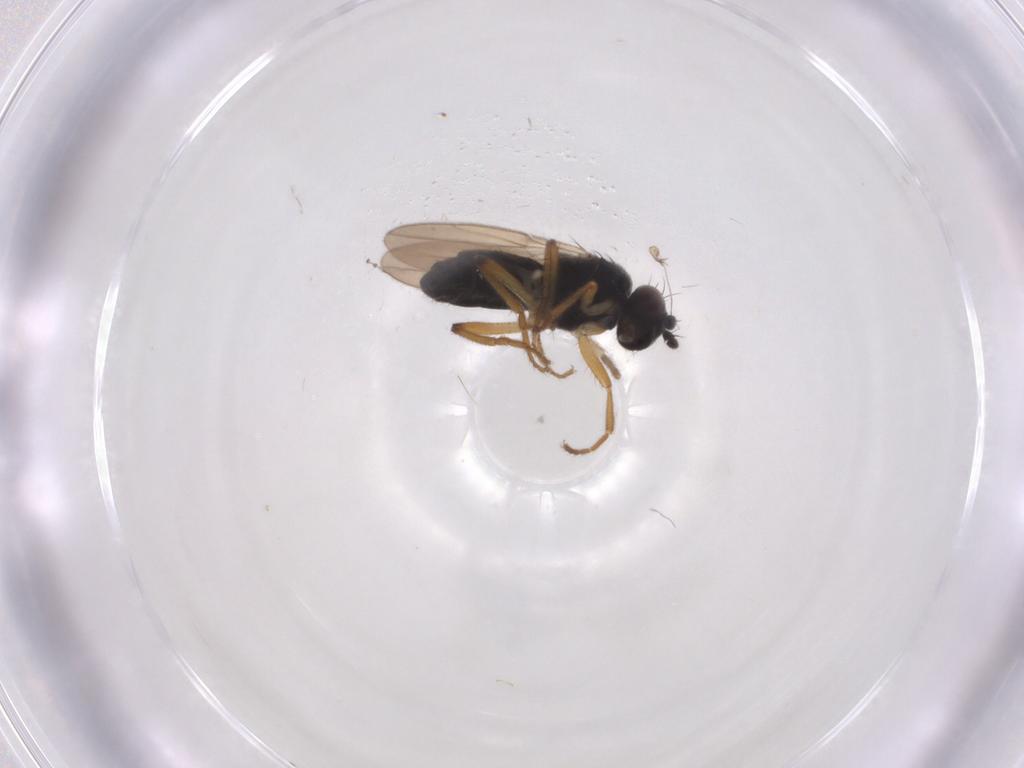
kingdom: Animalia
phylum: Arthropoda
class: Insecta
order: Diptera
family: Sphaeroceridae
